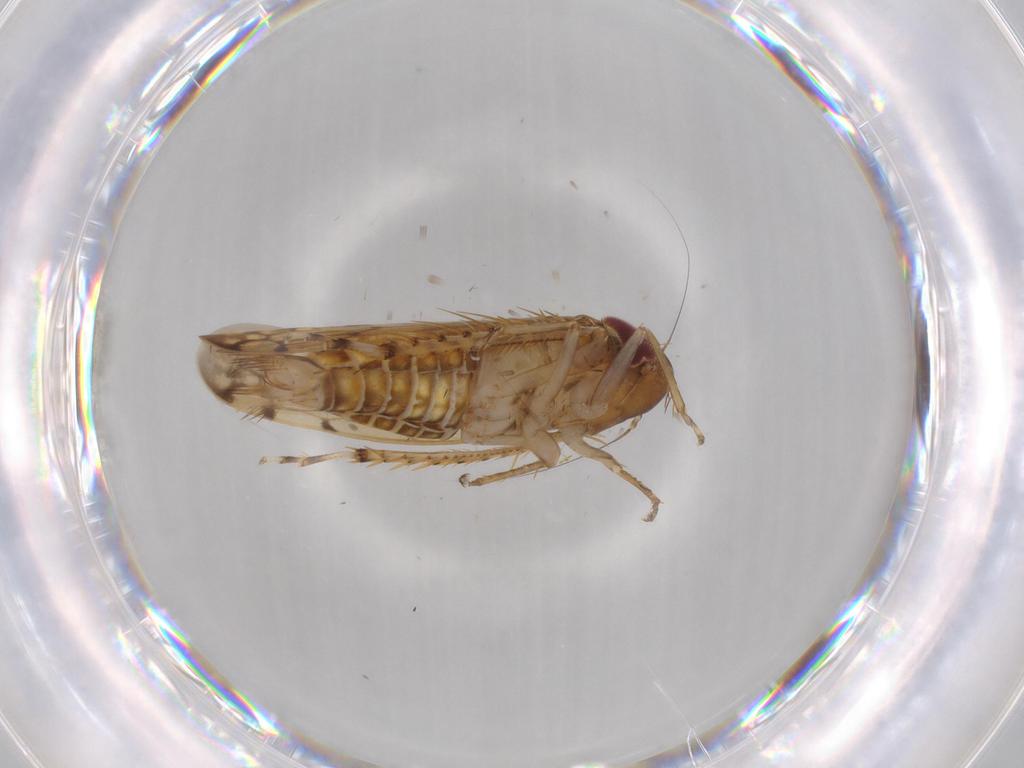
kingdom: Animalia
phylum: Arthropoda
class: Insecta
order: Hemiptera
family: Cicadellidae
